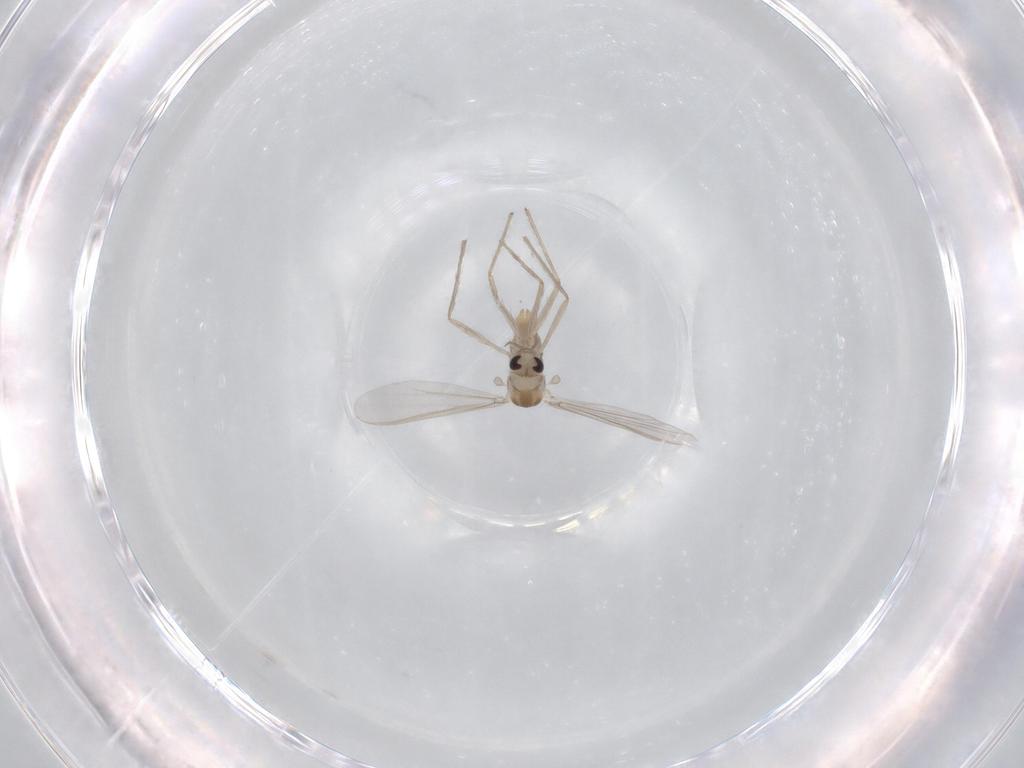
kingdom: Animalia
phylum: Arthropoda
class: Insecta
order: Diptera
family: Chironomidae
